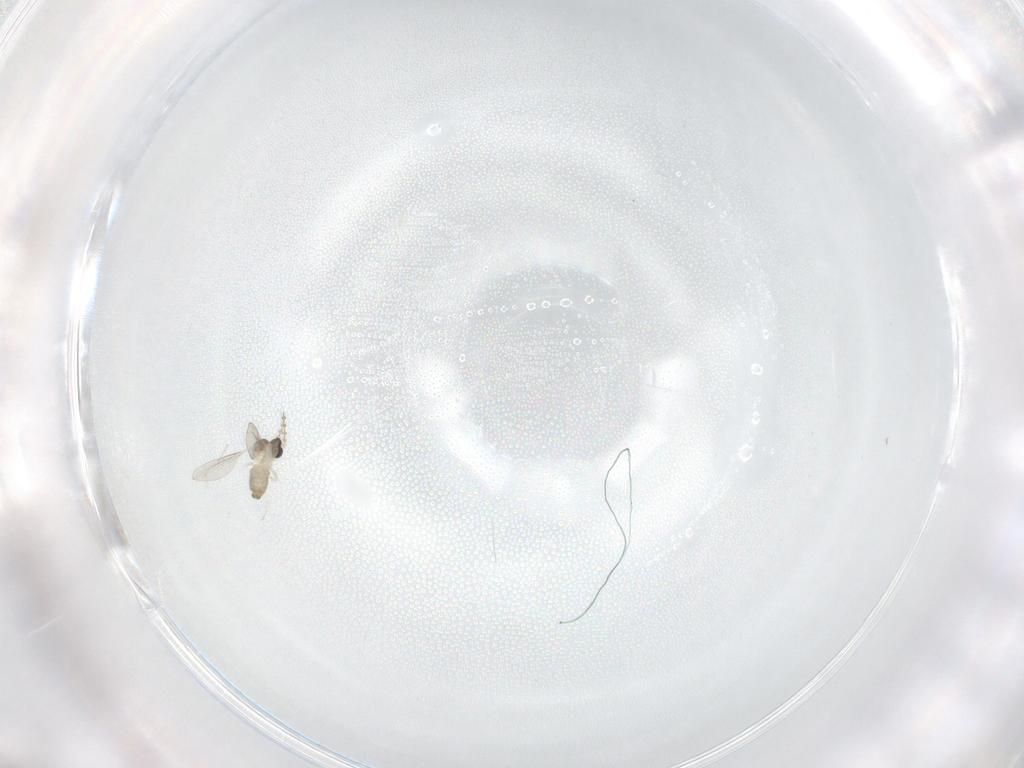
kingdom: Animalia
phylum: Arthropoda
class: Insecta
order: Diptera
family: Cecidomyiidae
